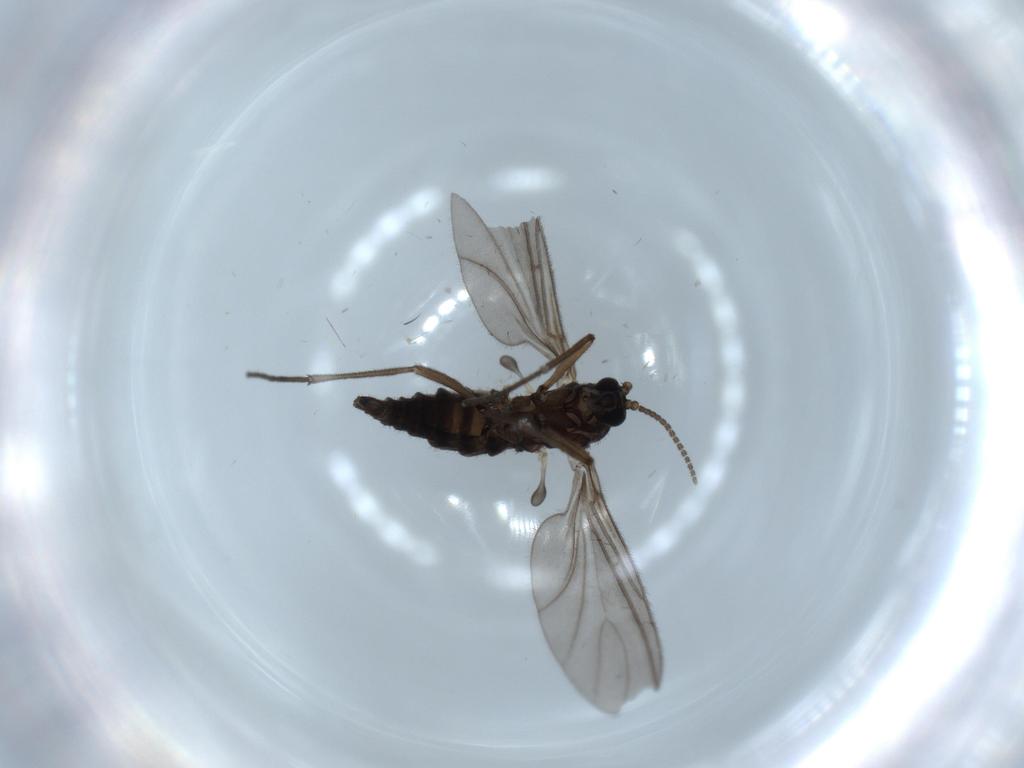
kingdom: Animalia
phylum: Arthropoda
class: Insecta
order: Diptera
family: Sciaridae
